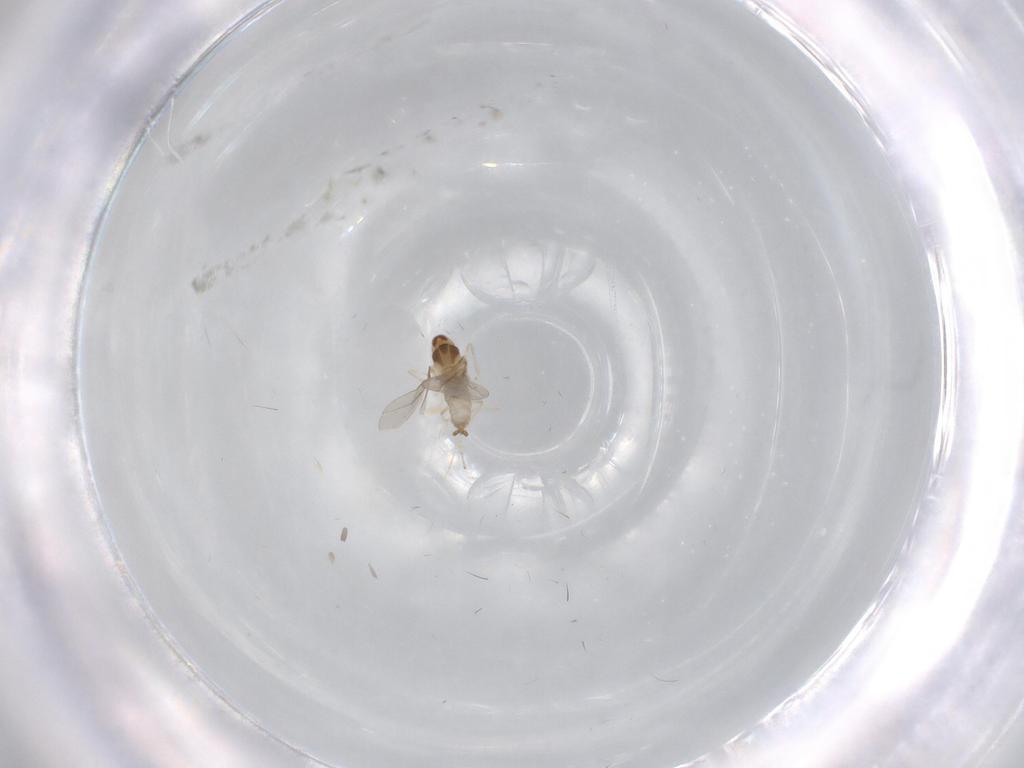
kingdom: Animalia
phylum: Arthropoda
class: Insecta
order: Diptera
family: Cecidomyiidae
